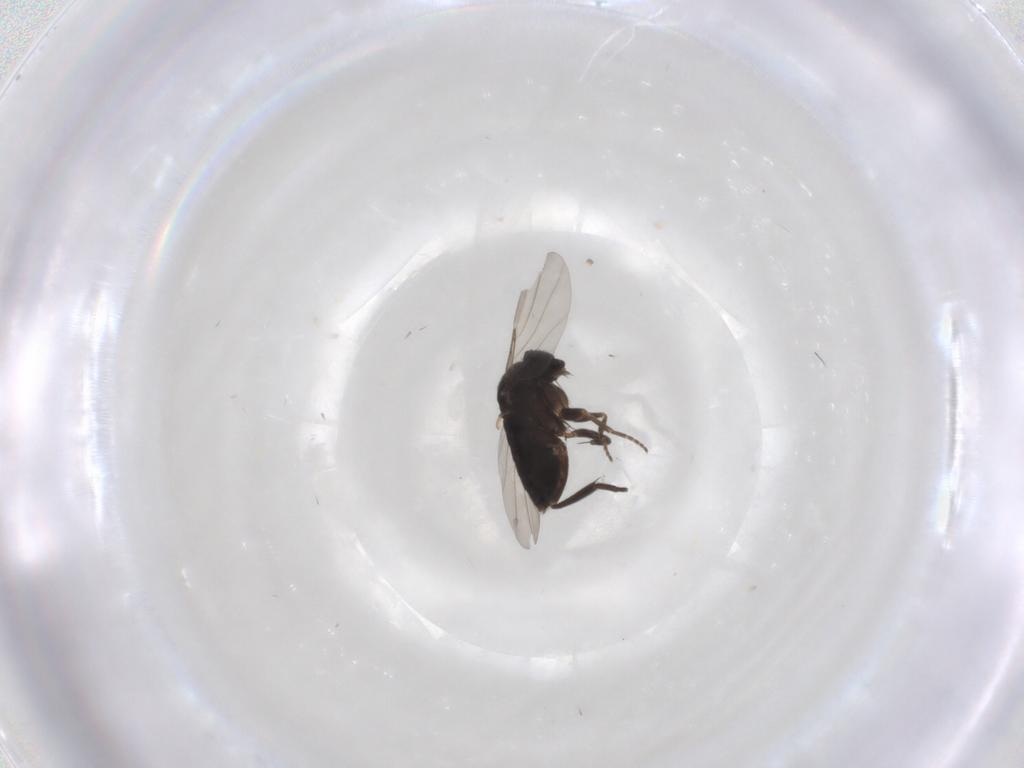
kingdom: Animalia
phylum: Arthropoda
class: Insecta
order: Diptera
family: Phoridae
